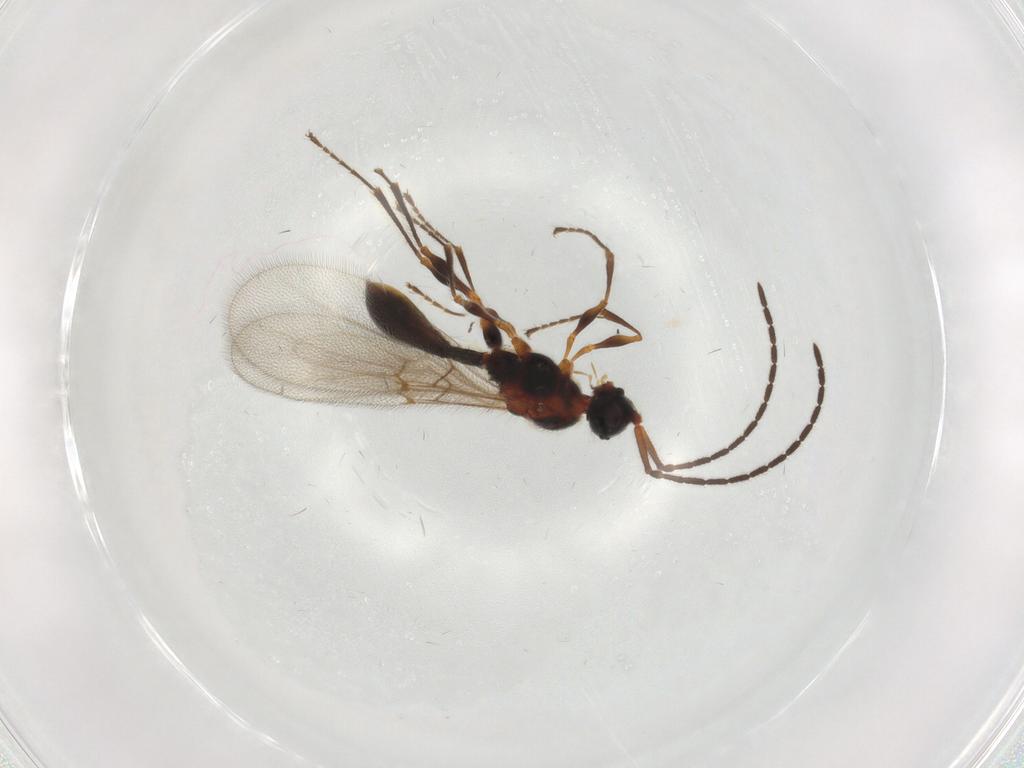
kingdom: Animalia
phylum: Arthropoda
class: Insecta
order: Hymenoptera
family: Diapriidae
